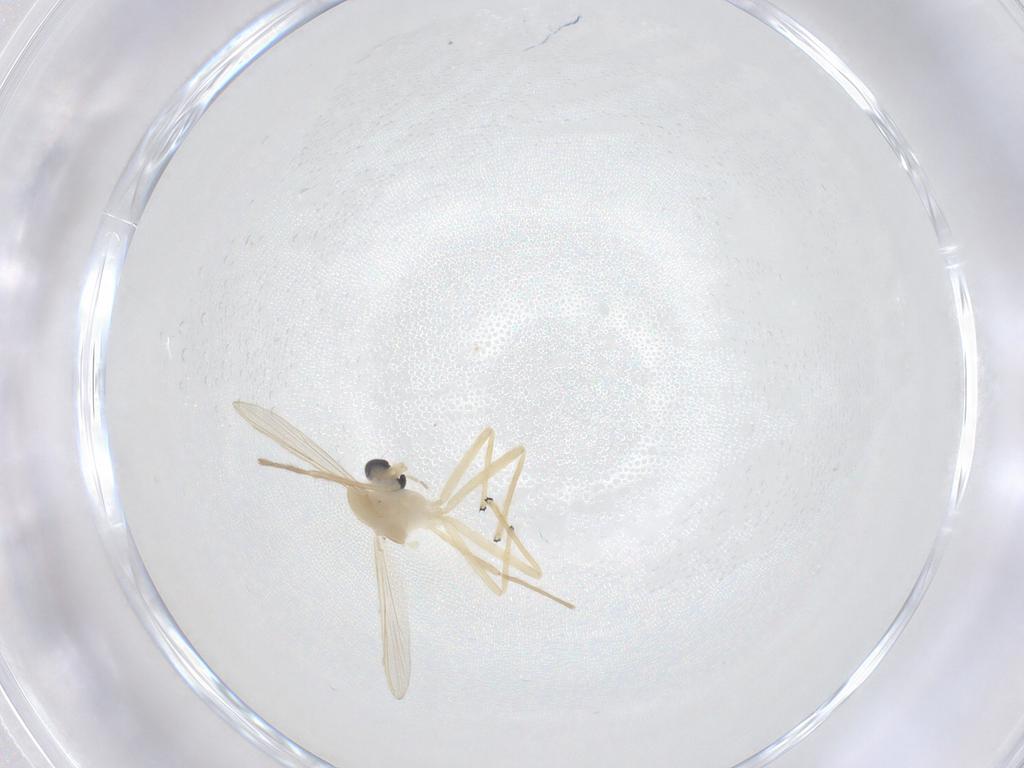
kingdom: Animalia
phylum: Arthropoda
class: Insecta
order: Diptera
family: Chironomidae
